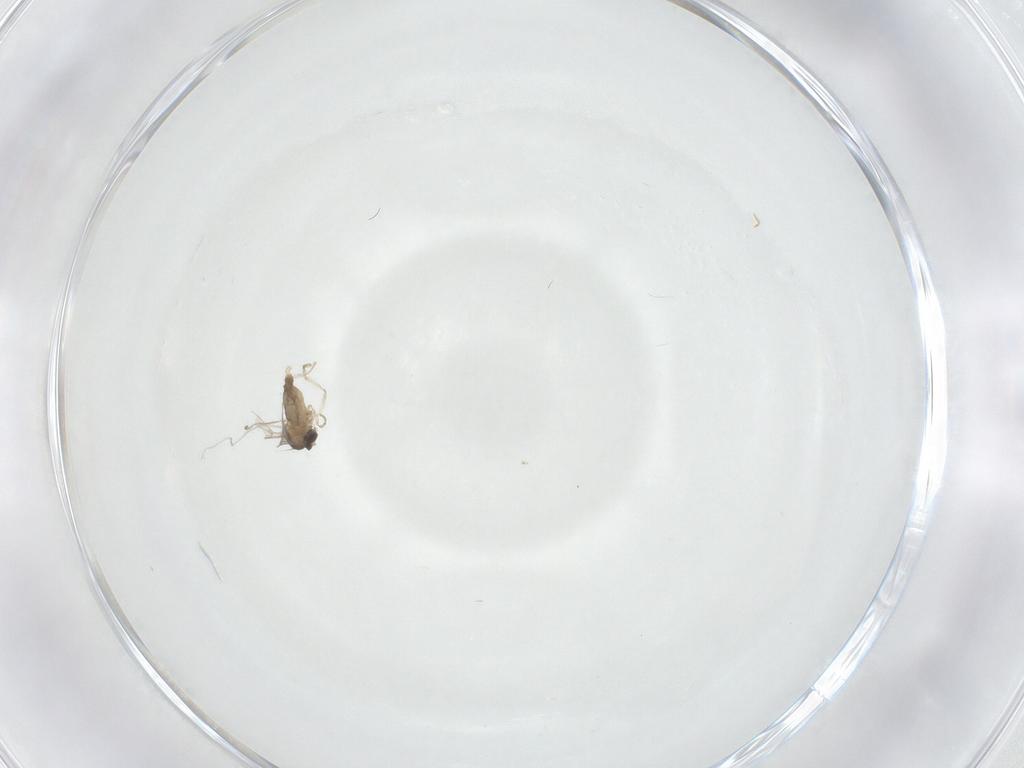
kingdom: Animalia
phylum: Arthropoda
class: Insecta
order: Diptera
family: Cecidomyiidae
